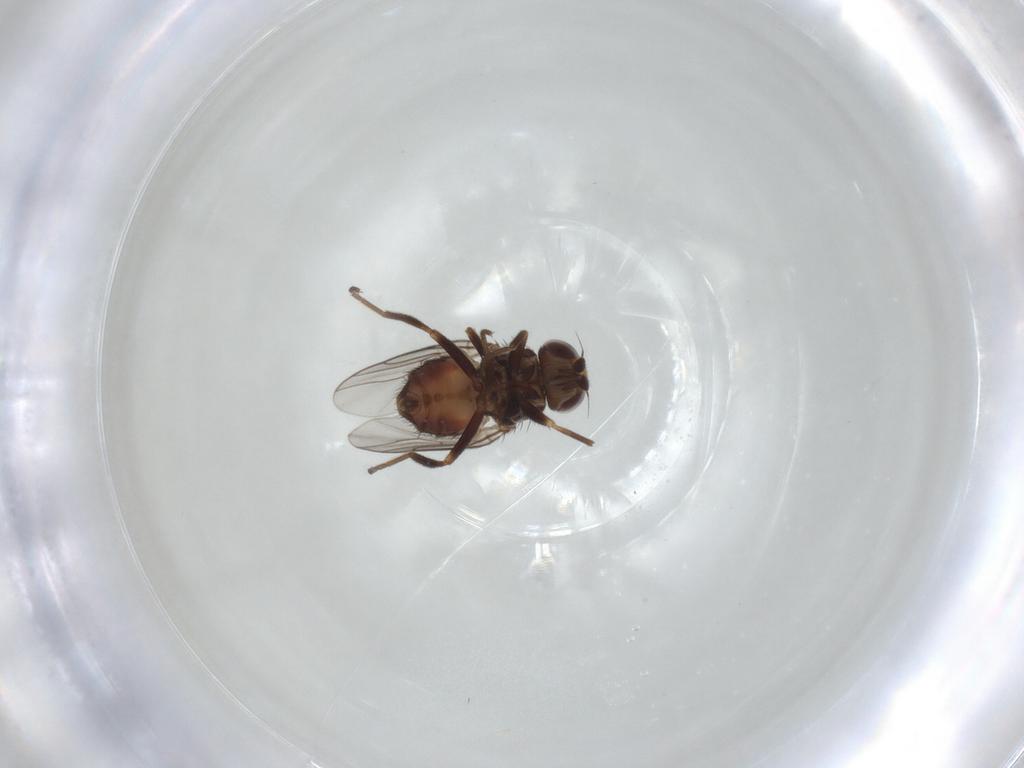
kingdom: Animalia
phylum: Arthropoda
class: Insecta
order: Diptera
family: Chloropidae
